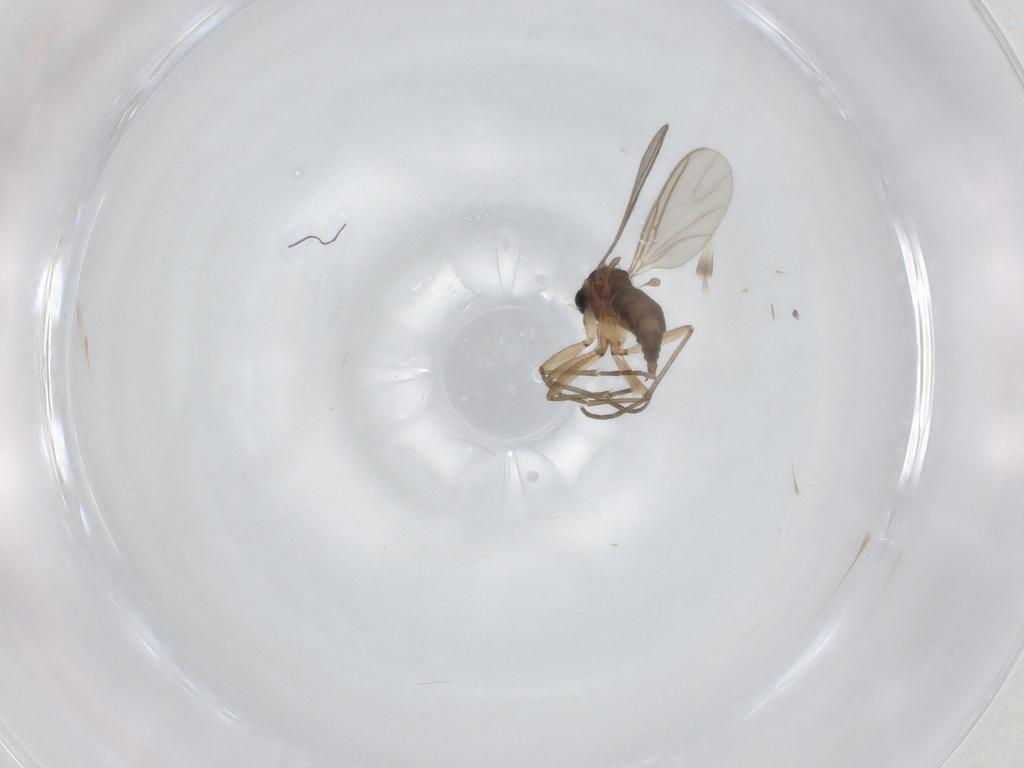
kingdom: Animalia
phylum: Arthropoda
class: Insecta
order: Diptera
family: Sciaridae
